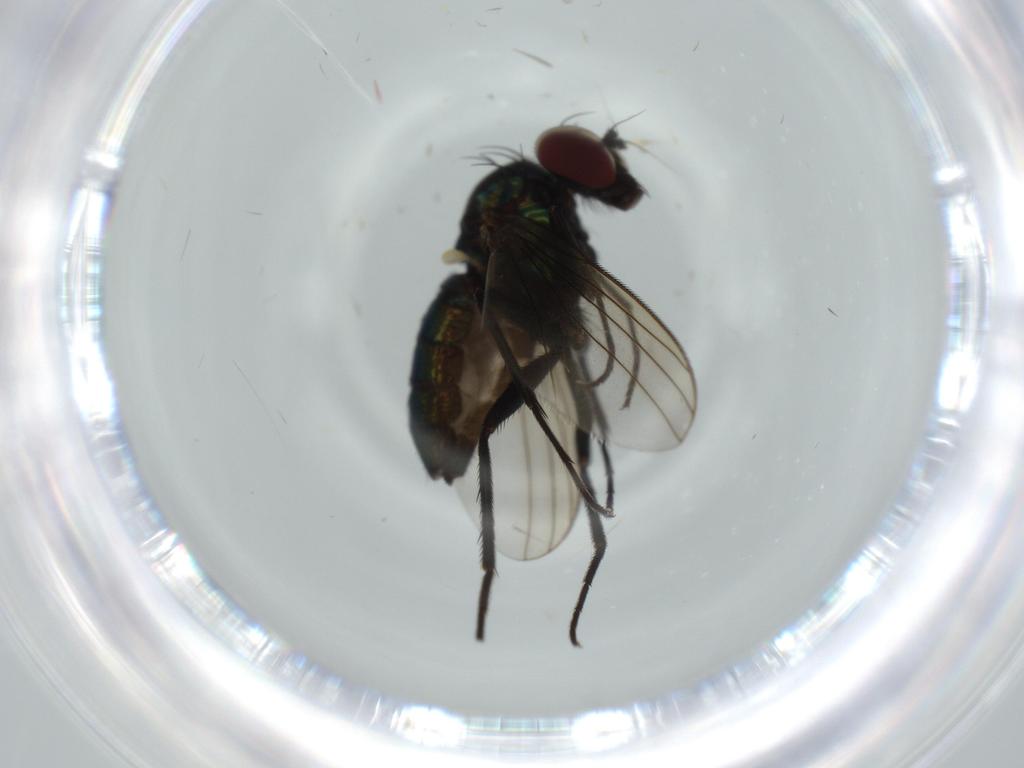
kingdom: Animalia
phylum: Arthropoda
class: Insecta
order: Diptera
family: Dolichopodidae
